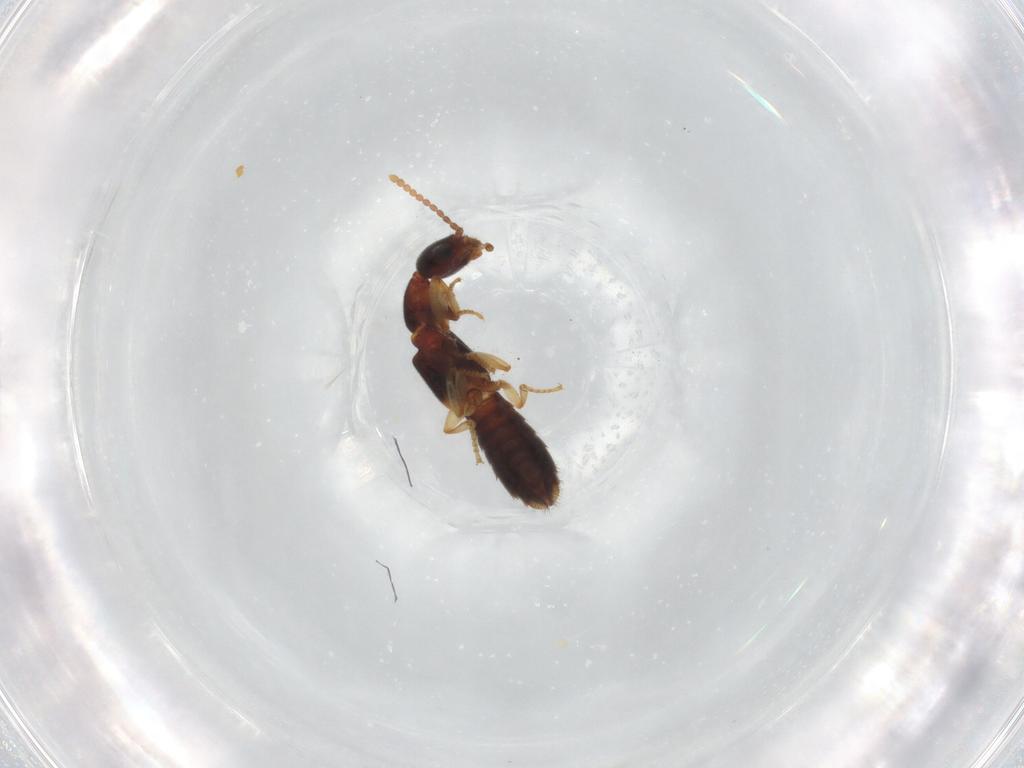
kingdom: Animalia
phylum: Arthropoda
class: Insecta
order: Coleoptera
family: Staphylinidae
